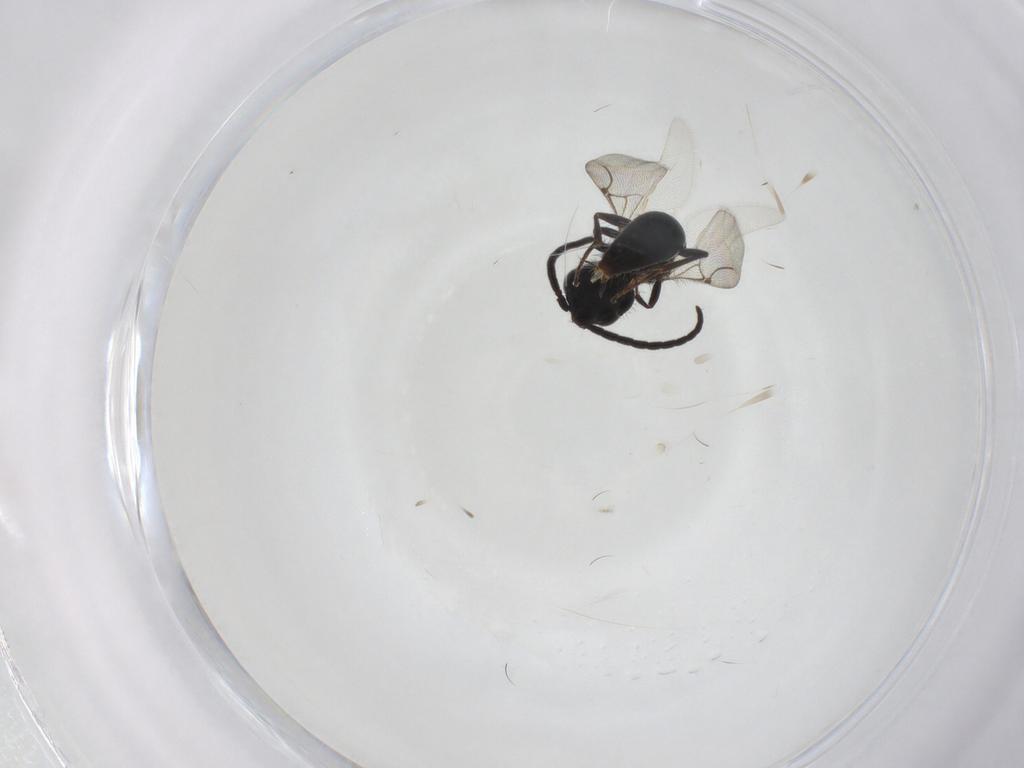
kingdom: Animalia
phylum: Arthropoda
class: Insecta
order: Hymenoptera
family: Bethylidae
